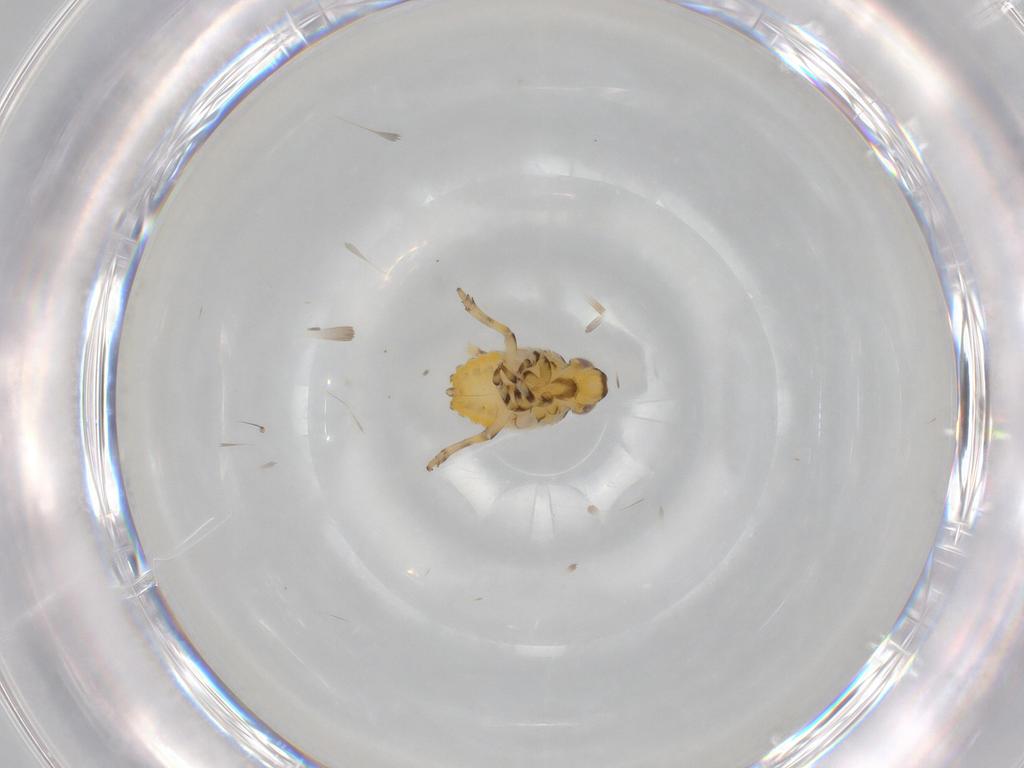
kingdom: Animalia
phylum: Arthropoda
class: Insecta
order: Hemiptera
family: Issidae
